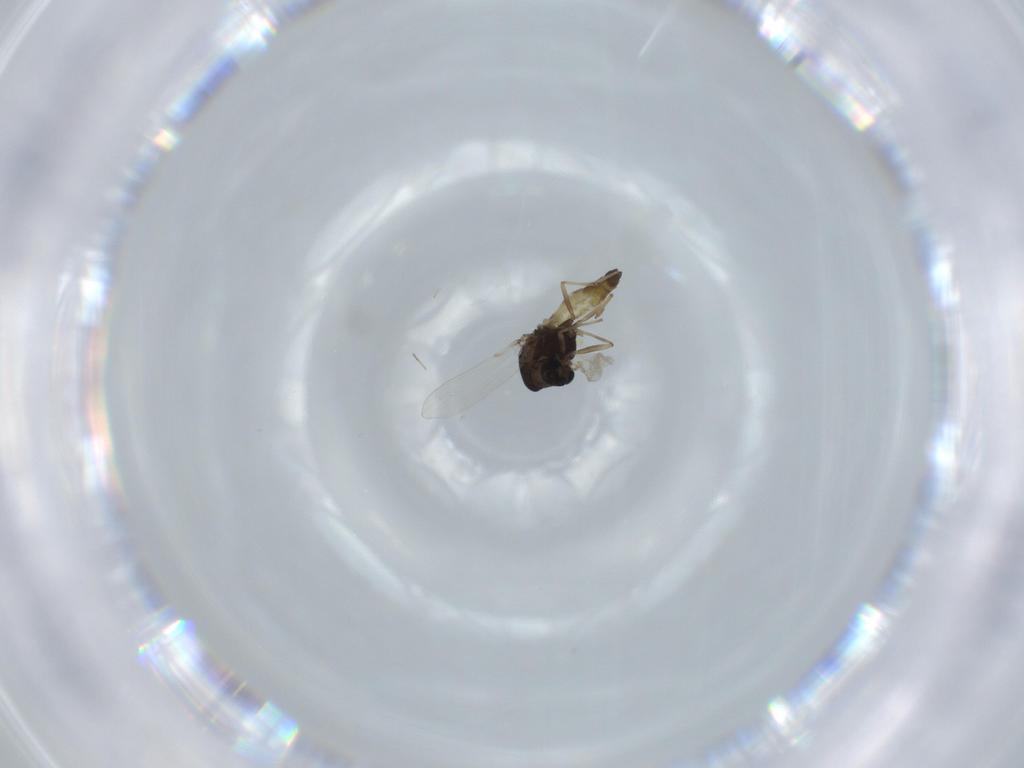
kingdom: Animalia
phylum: Arthropoda
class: Insecta
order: Diptera
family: Chironomidae
